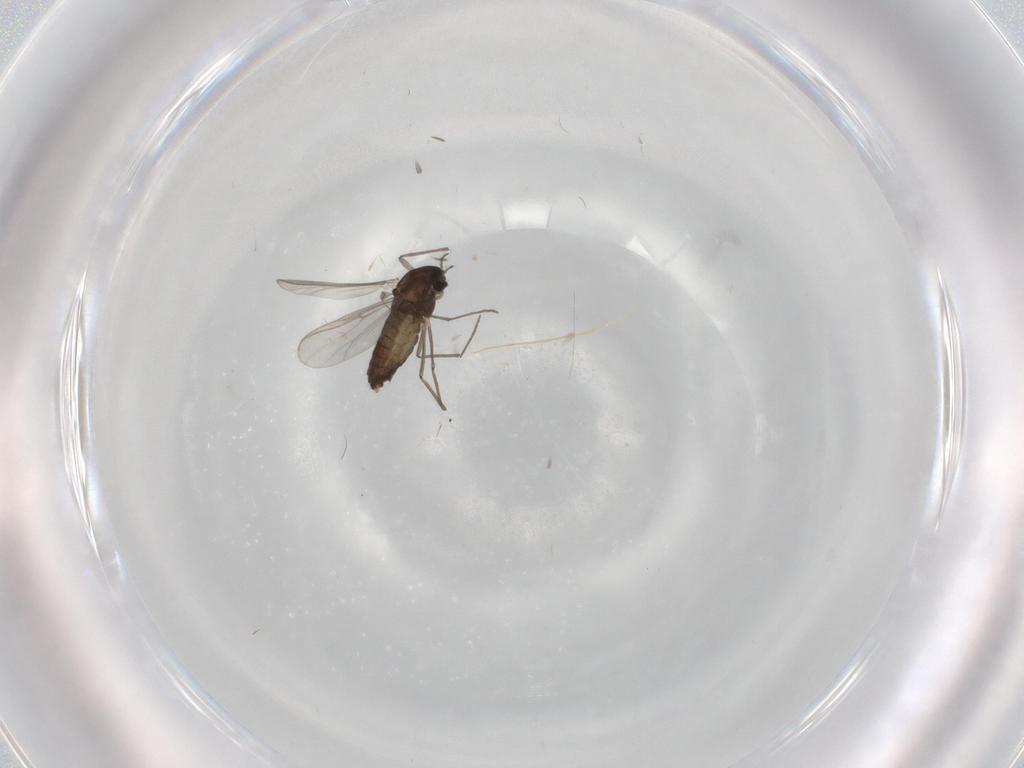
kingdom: Animalia
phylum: Arthropoda
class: Insecta
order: Diptera
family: Chironomidae
